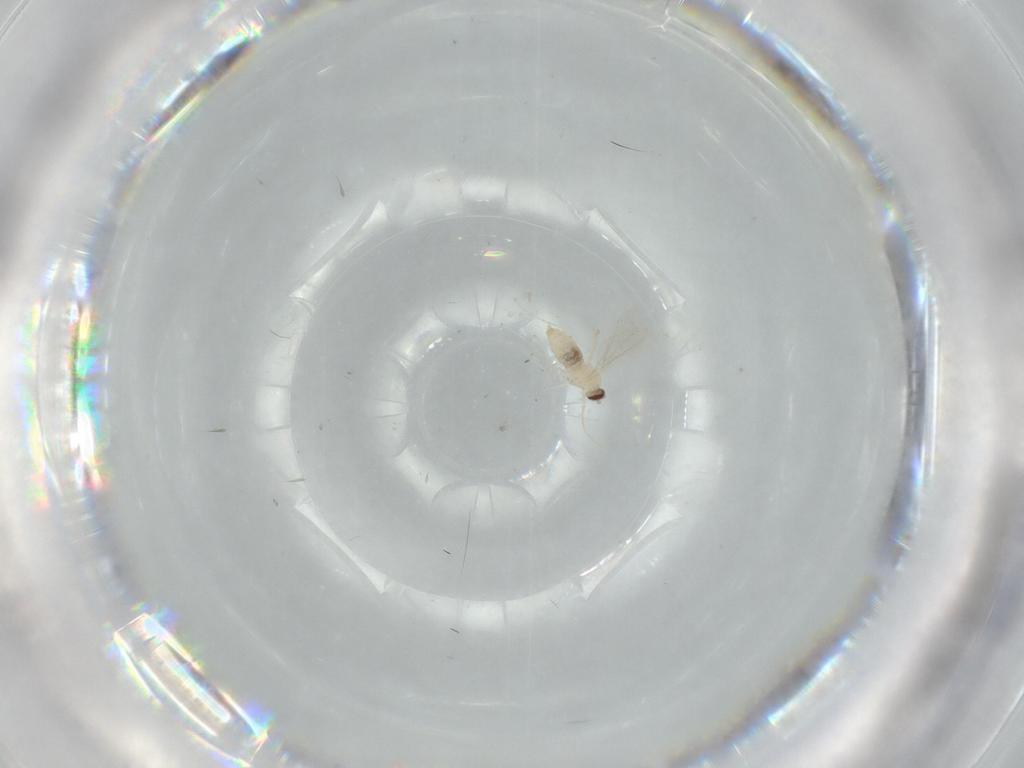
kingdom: Animalia
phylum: Arthropoda
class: Insecta
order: Diptera
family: Cecidomyiidae
